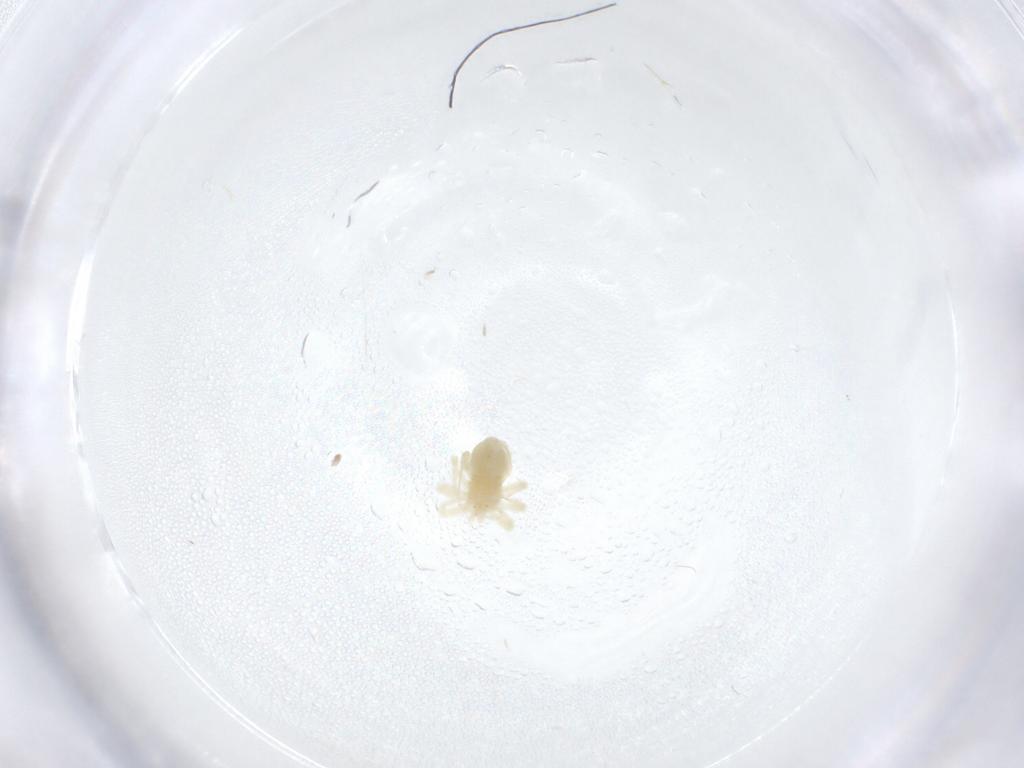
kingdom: Animalia
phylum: Arthropoda
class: Arachnida
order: Trombidiformes
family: Anystidae
